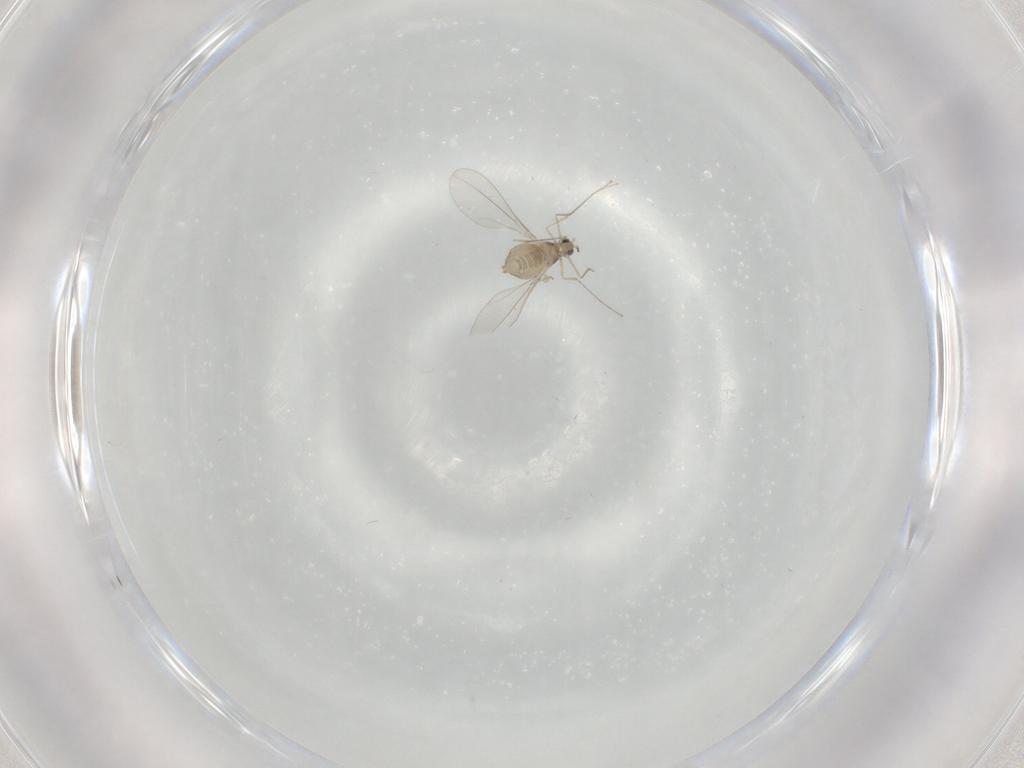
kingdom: Animalia
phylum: Arthropoda
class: Insecta
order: Diptera
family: Cecidomyiidae
